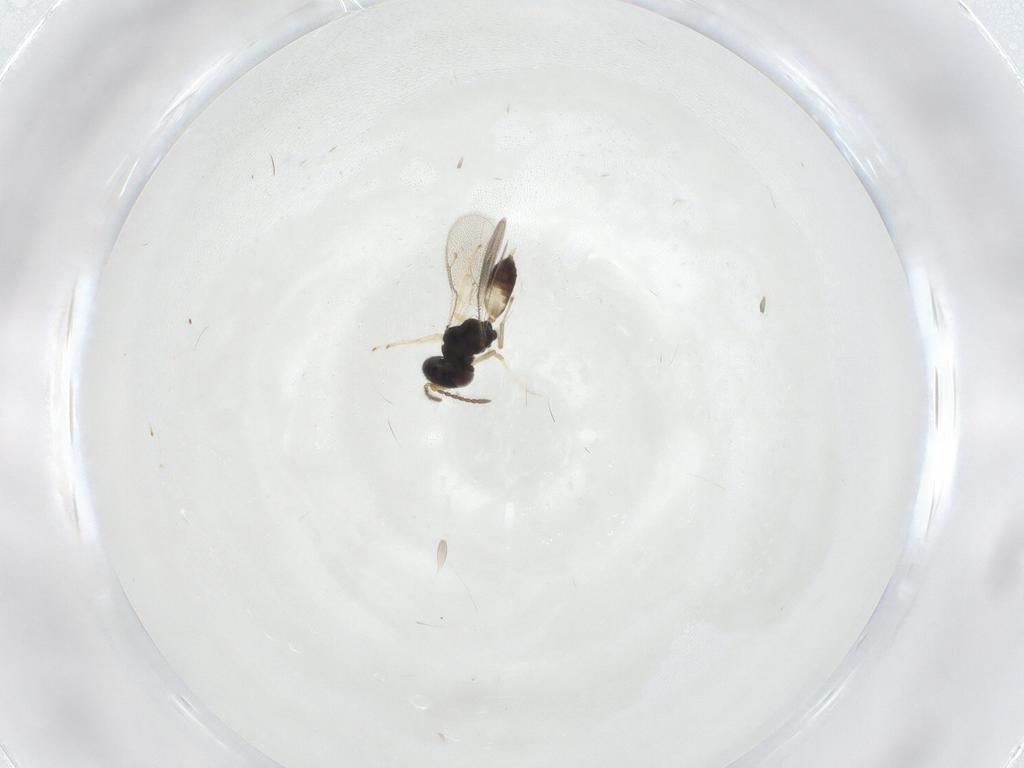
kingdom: Animalia
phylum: Arthropoda
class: Insecta
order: Hymenoptera
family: Pteromalidae
